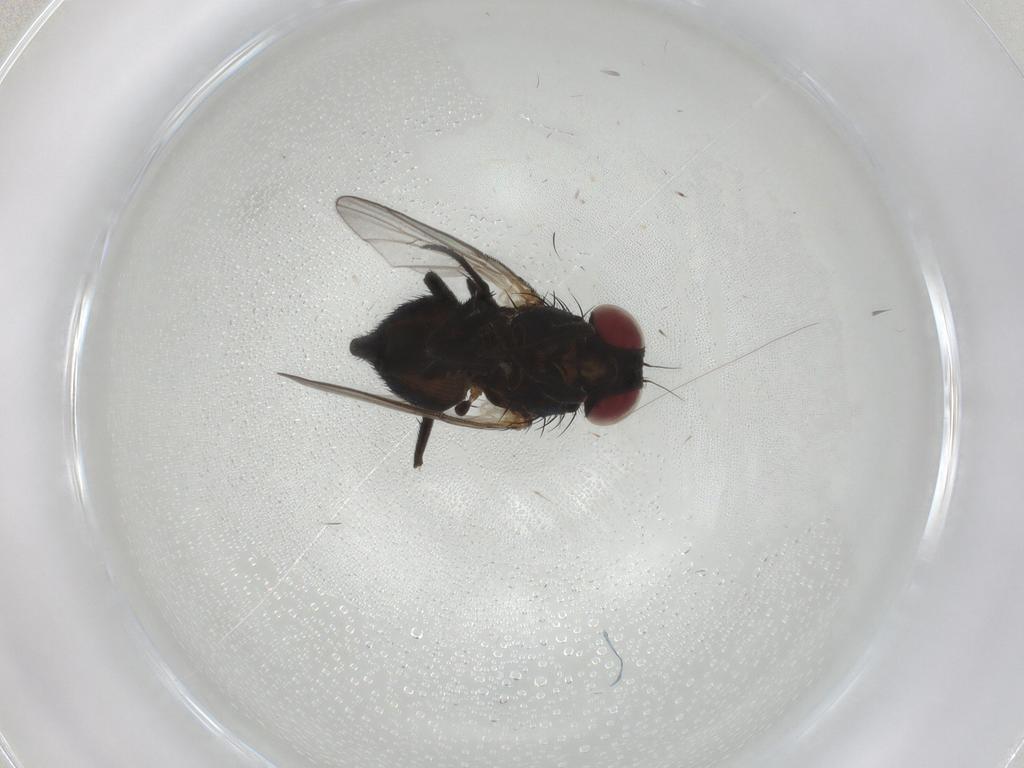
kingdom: Animalia
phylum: Arthropoda
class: Insecta
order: Diptera
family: Agromyzidae
